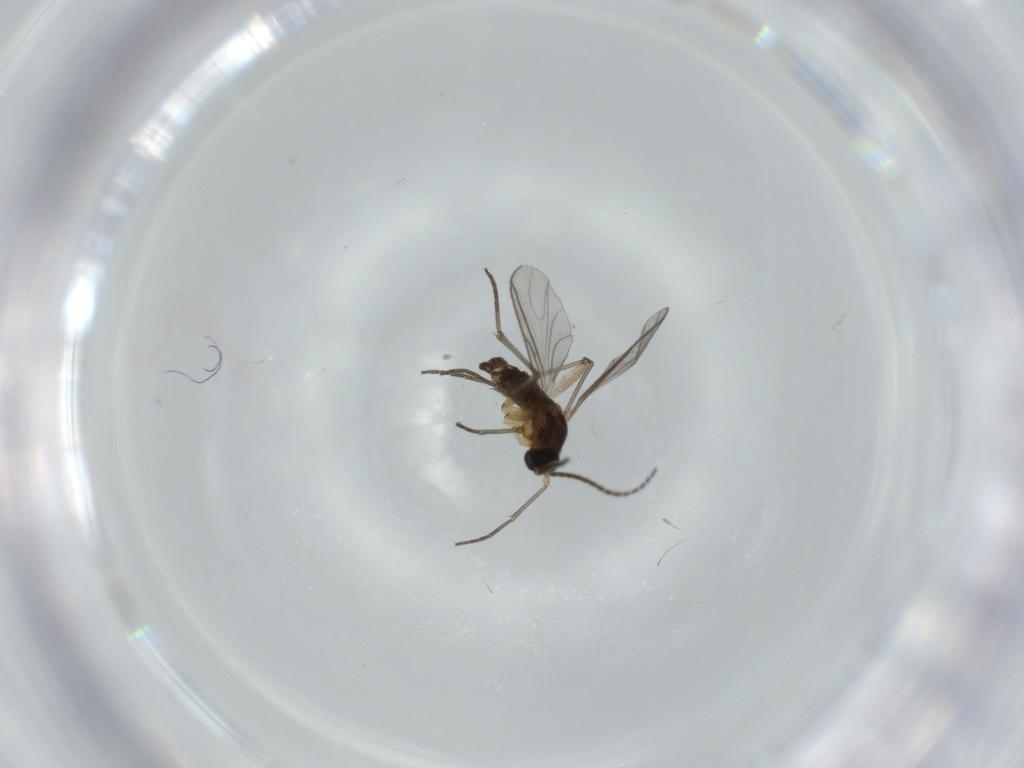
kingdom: Animalia
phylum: Arthropoda
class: Insecta
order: Diptera
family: Sciaridae
